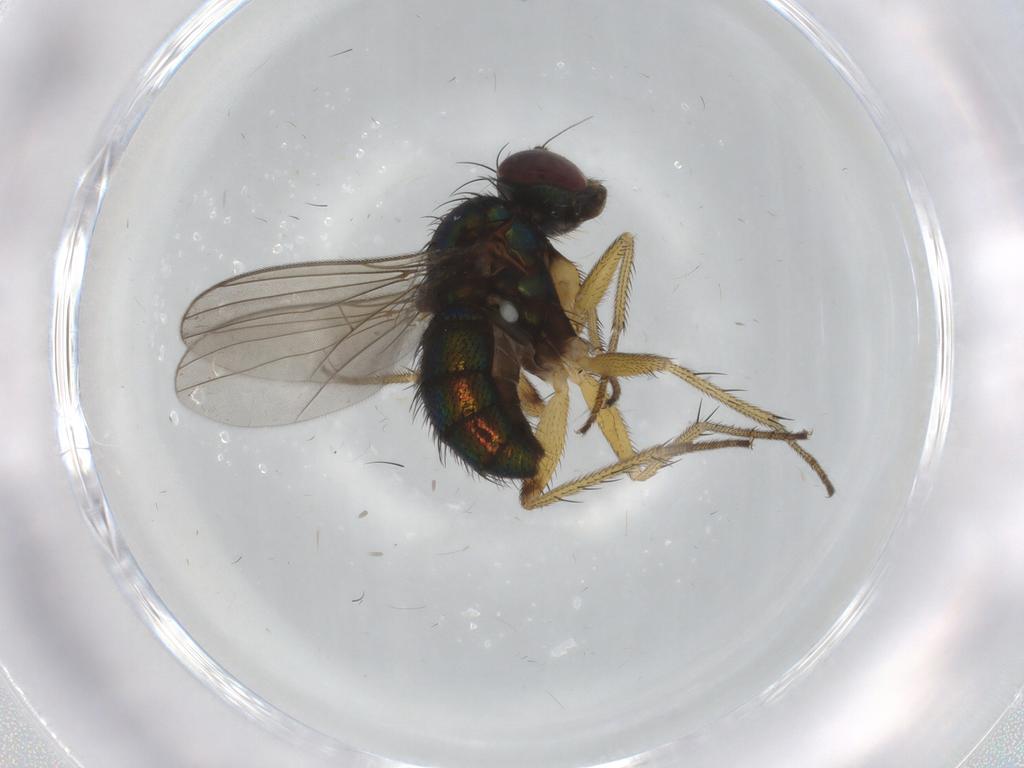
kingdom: Animalia
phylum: Arthropoda
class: Insecta
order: Diptera
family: Dolichopodidae
